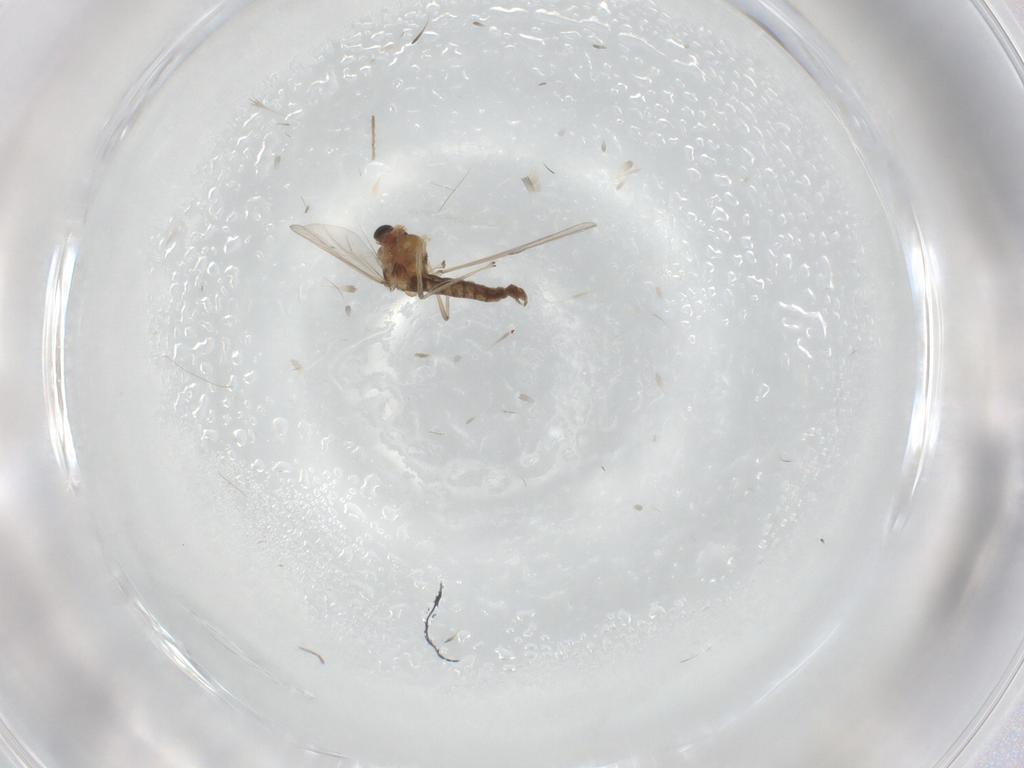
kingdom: Animalia
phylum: Arthropoda
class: Insecta
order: Diptera
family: Chironomidae
